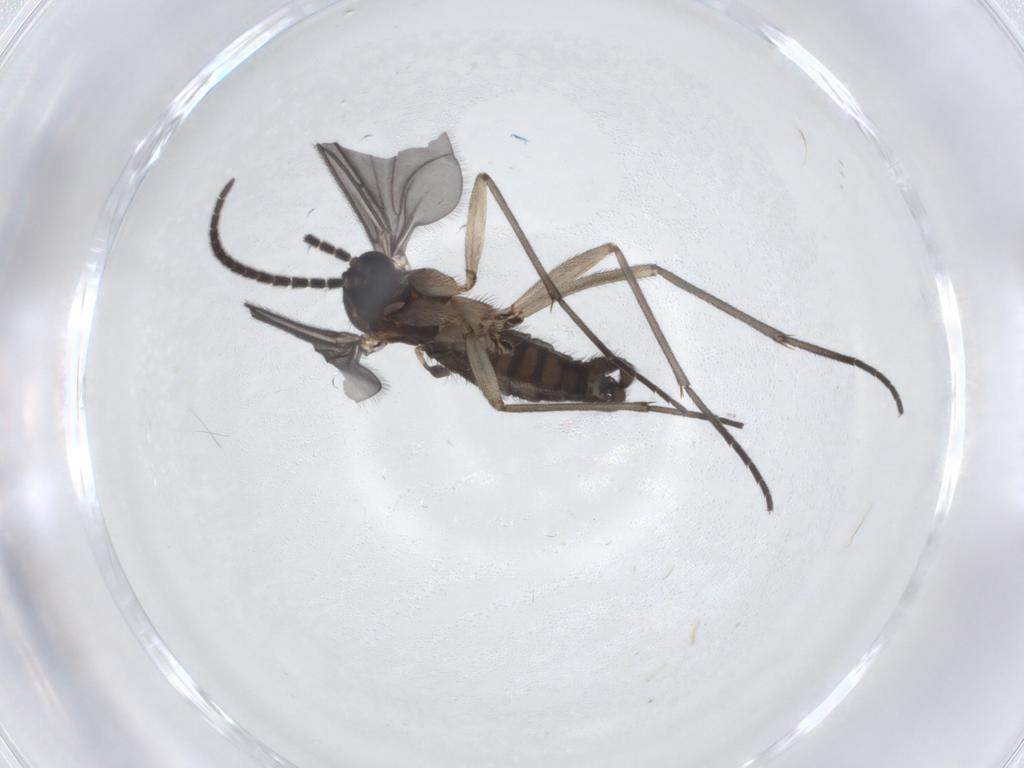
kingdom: Animalia
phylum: Arthropoda
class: Insecta
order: Diptera
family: Sciaridae
